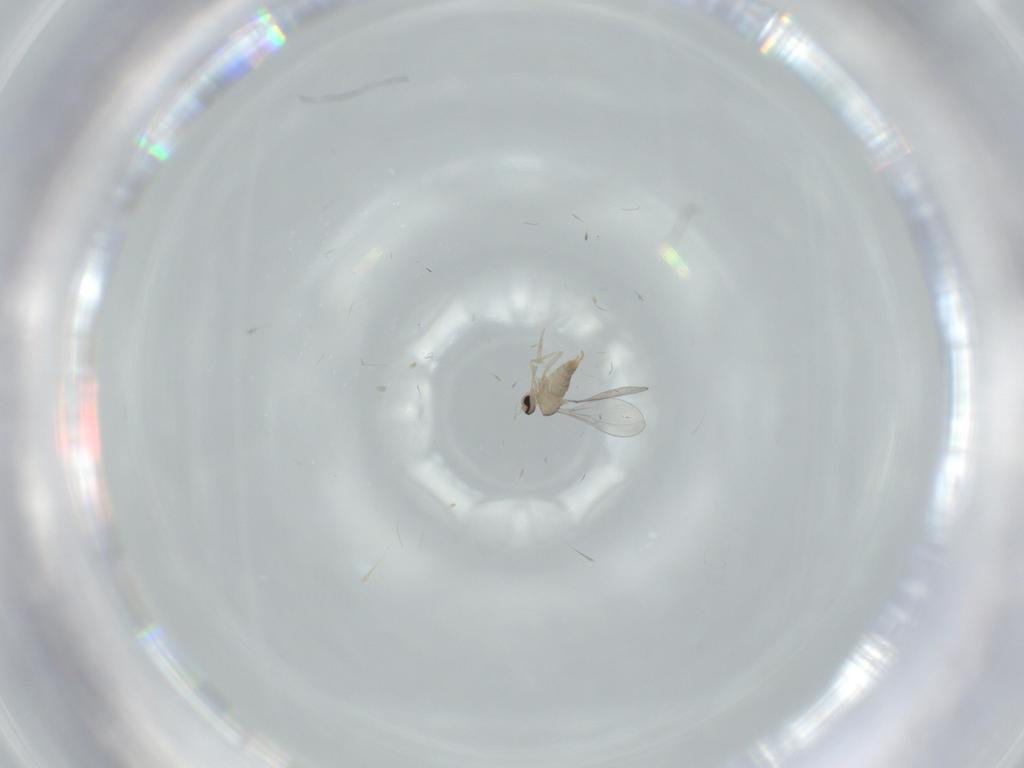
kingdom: Animalia
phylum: Arthropoda
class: Insecta
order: Diptera
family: Cecidomyiidae
